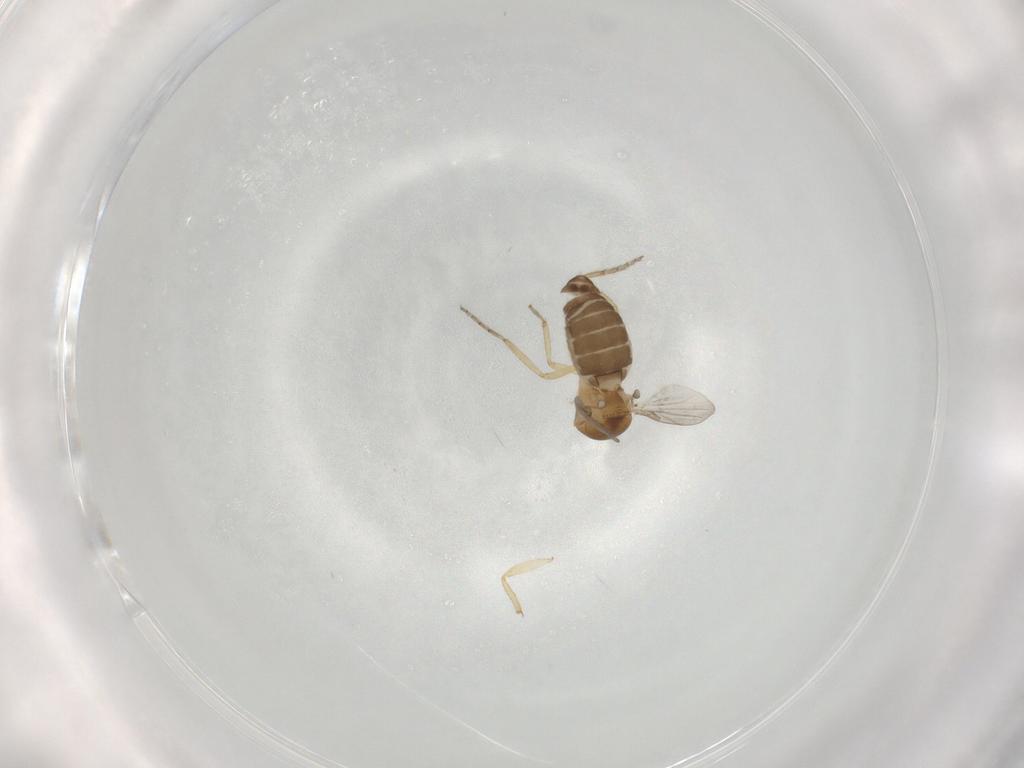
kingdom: Animalia
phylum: Arthropoda
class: Insecta
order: Diptera
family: Ceratopogonidae
